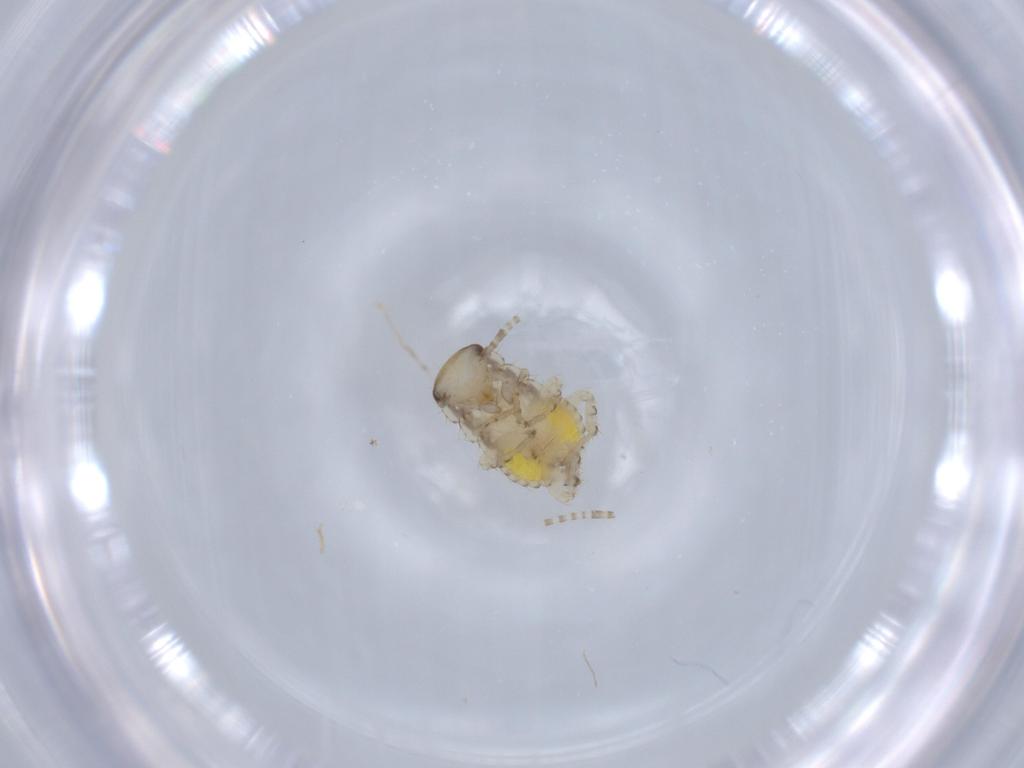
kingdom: Animalia
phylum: Arthropoda
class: Insecta
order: Blattodea
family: Ectobiidae
